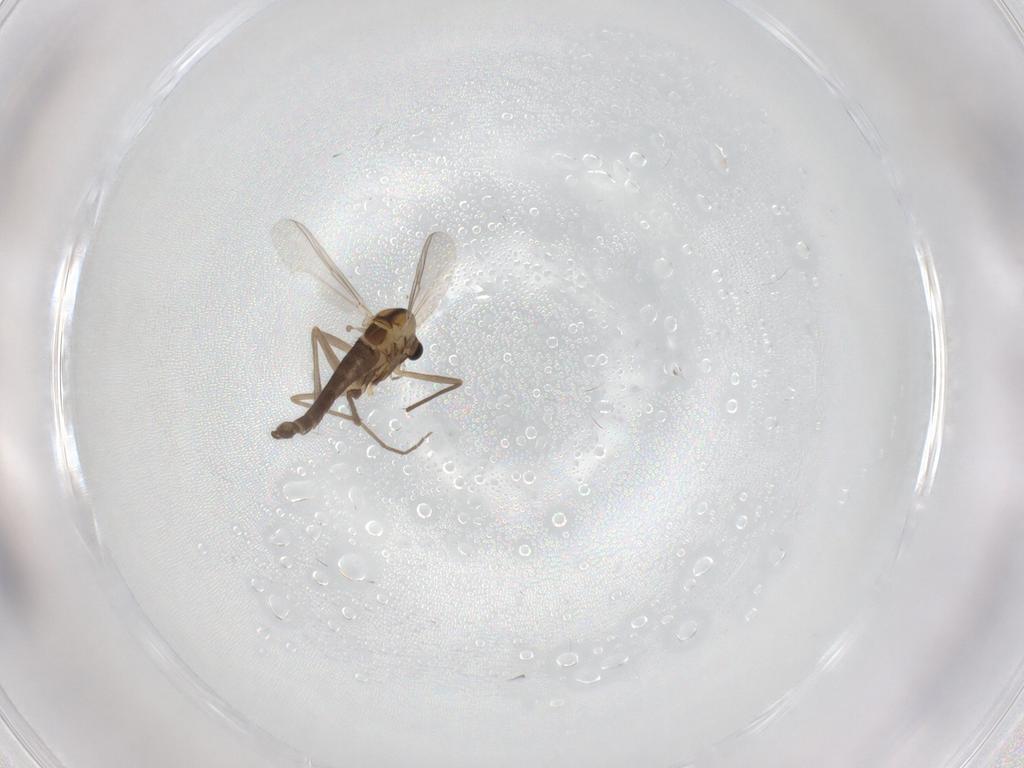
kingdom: Animalia
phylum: Arthropoda
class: Insecta
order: Diptera
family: Chironomidae
